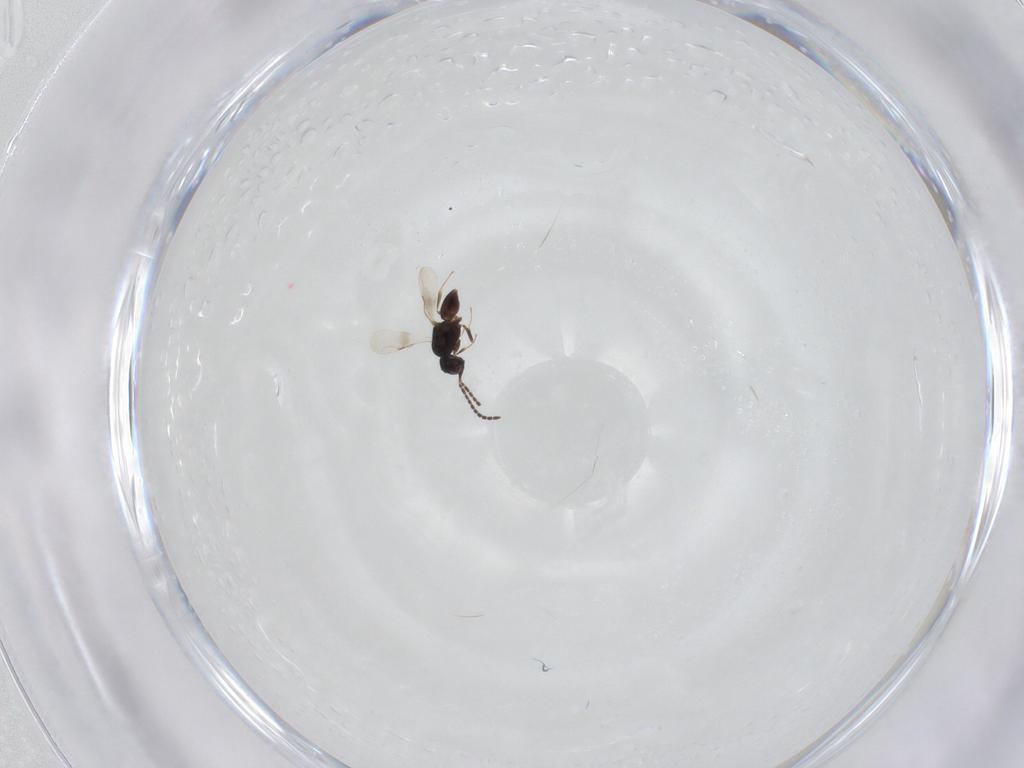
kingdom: Animalia
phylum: Arthropoda
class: Insecta
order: Hymenoptera
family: Ceraphronidae
